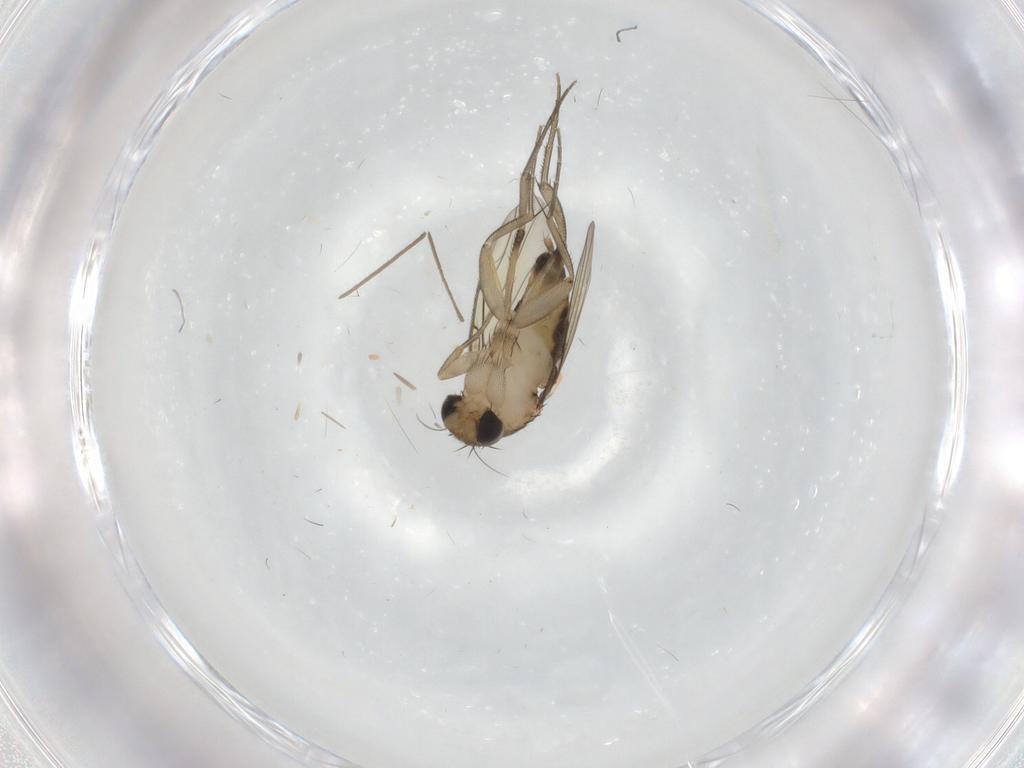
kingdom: Animalia
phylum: Arthropoda
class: Insecta
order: Diptera
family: Phoridae
